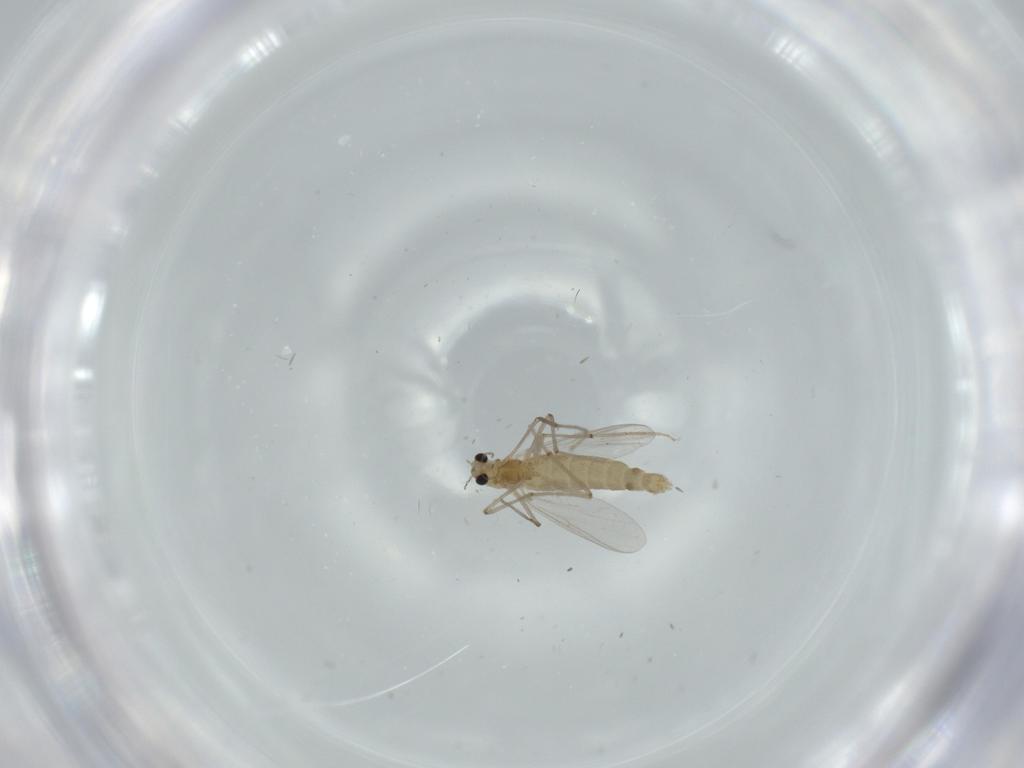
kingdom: Animalia
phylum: Arthropoda
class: Insecta
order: Diptera
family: Chironomidae
